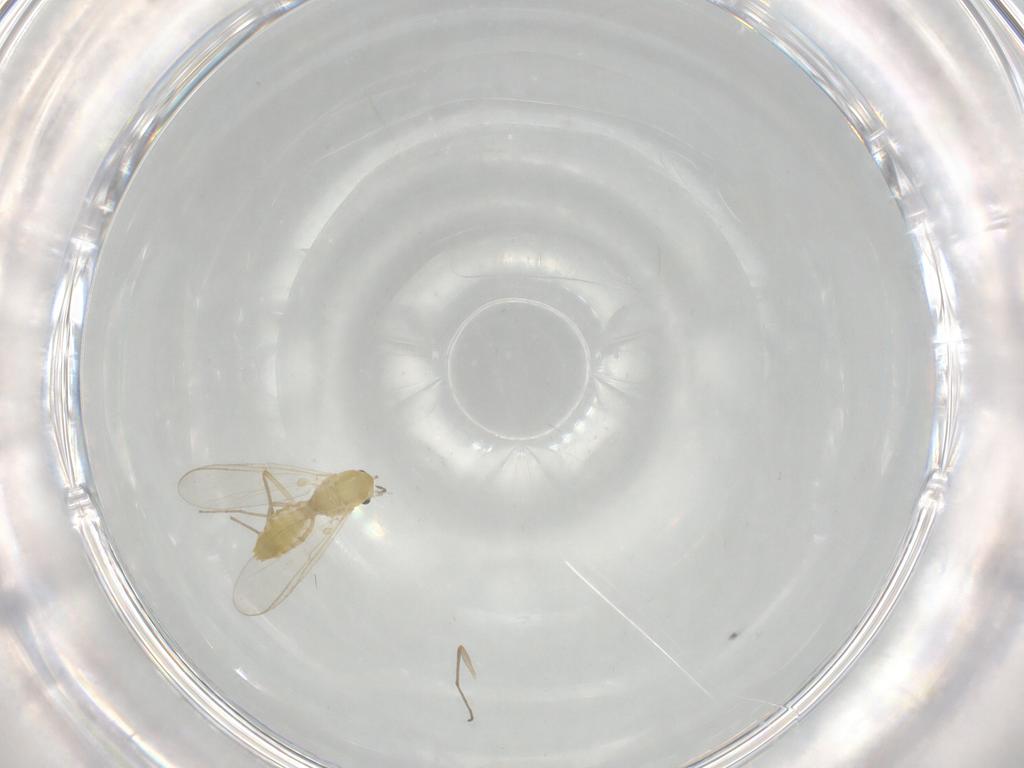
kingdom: Animalia
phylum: Arthropoda
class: Insecta
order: Diptera
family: Chironomidae
